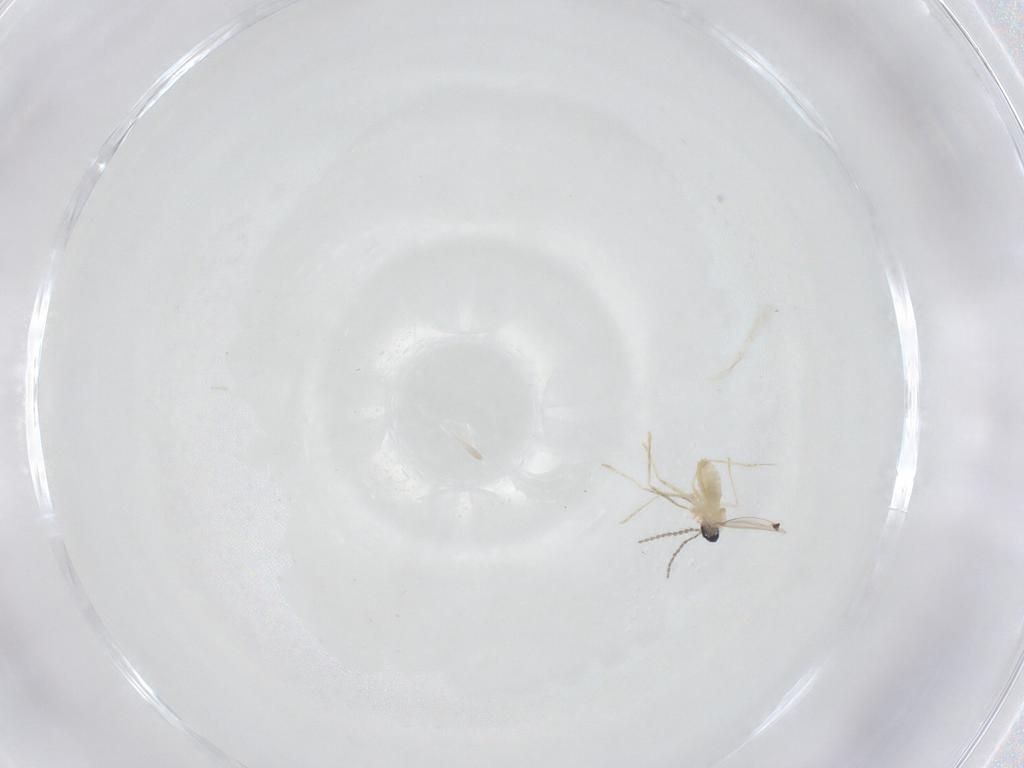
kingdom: Animalia
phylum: Arthropoda
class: Insecta
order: Diptera
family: Cecidomyiidae
